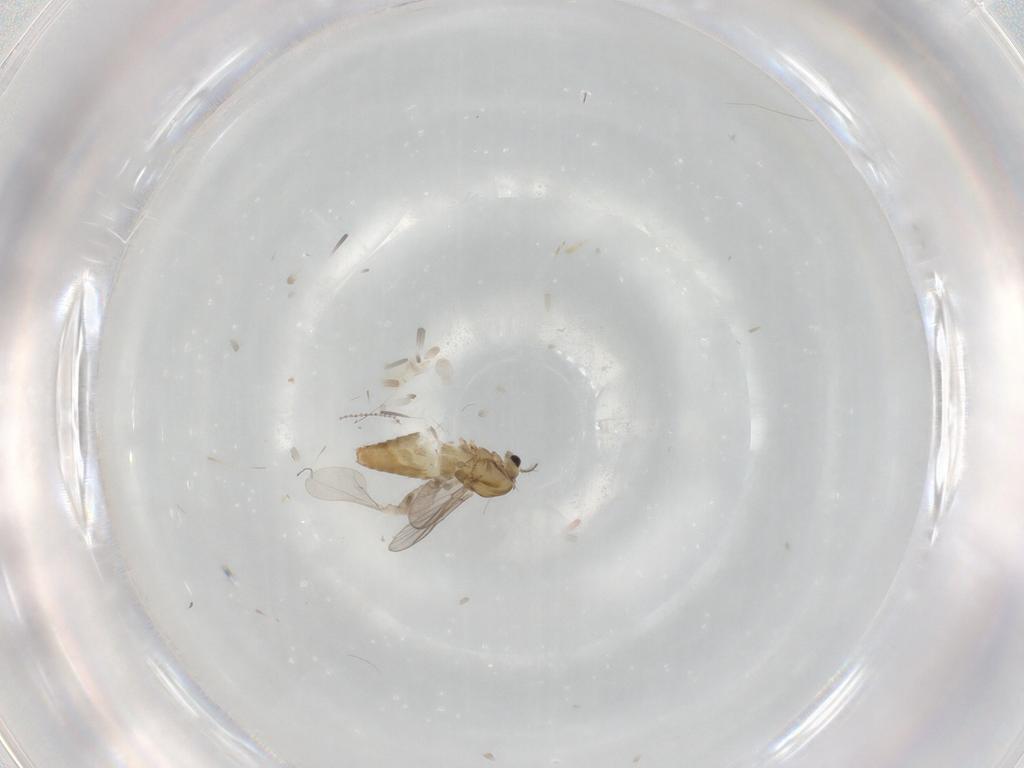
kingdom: Animalia
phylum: Arthropoda
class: Insecta
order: Diptera
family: Chironomidae
